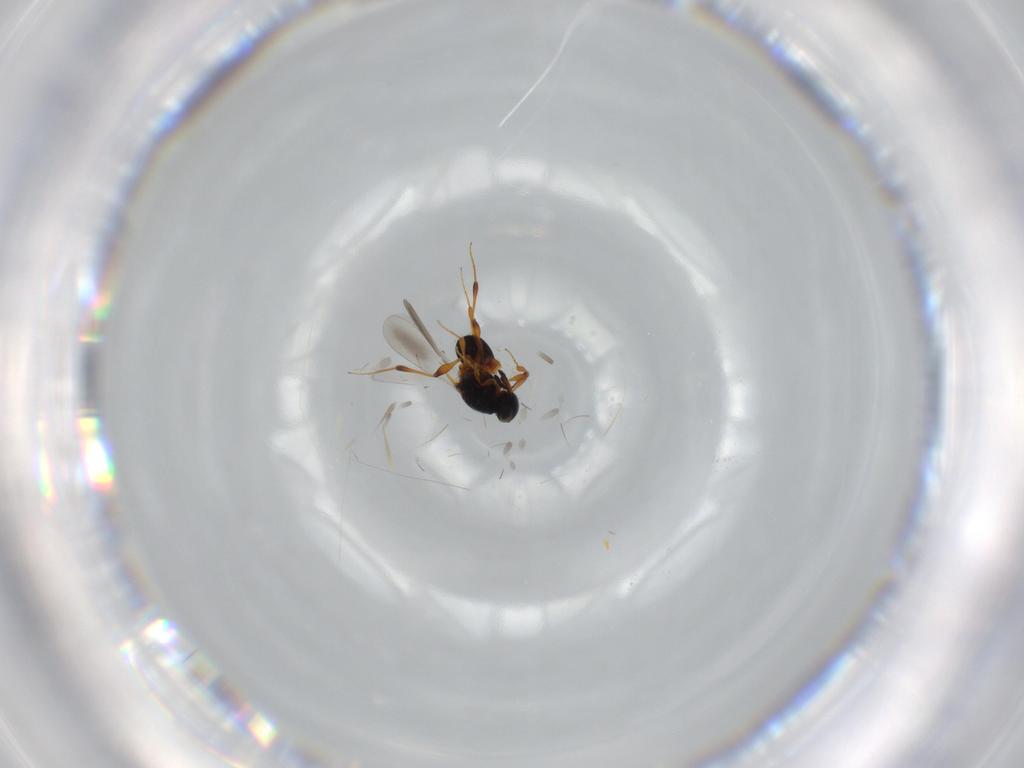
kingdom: Animalia
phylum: Arthropoda
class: Insecta
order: Hymenoptera
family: Platygastridae
